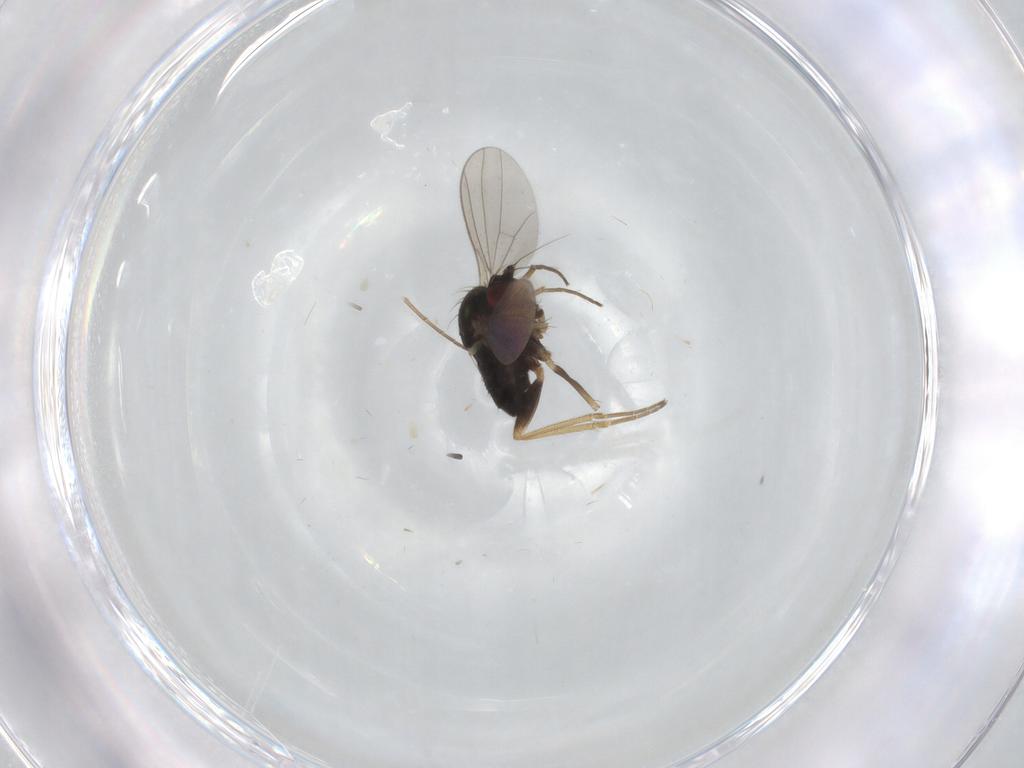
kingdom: Animalia
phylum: Arthropoda
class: Insecta
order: Diptera
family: Dolichopodidae
